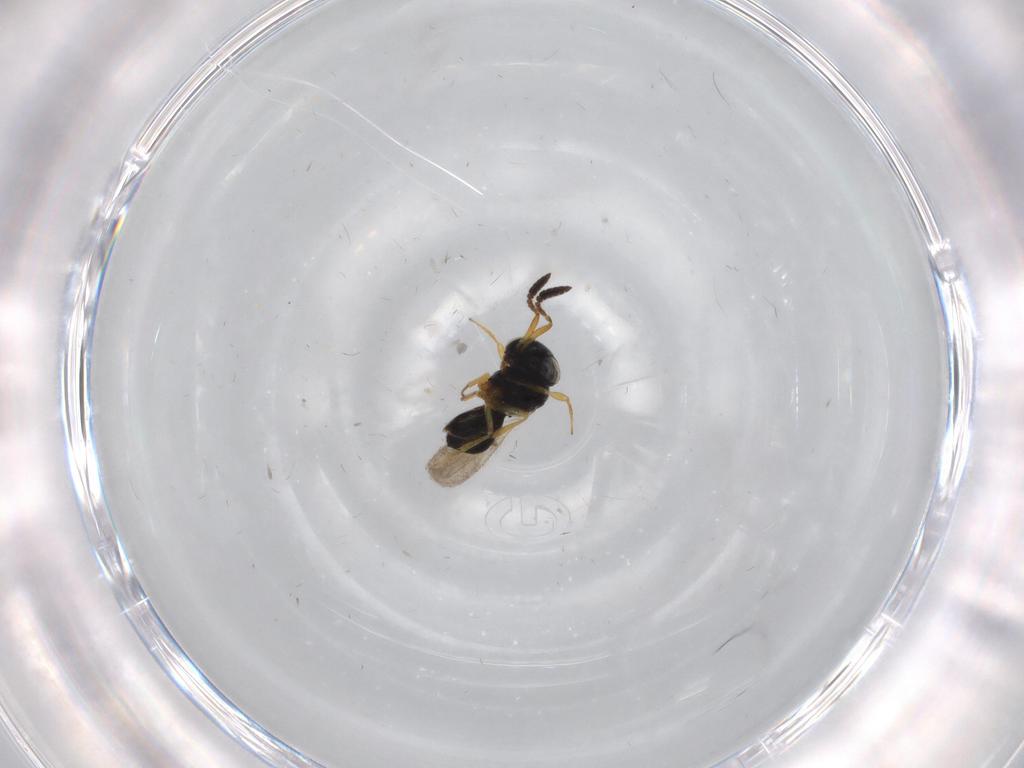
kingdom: Animalia
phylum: Arthropoda
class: Insecta
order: Hymenoptera
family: Scelionidae
